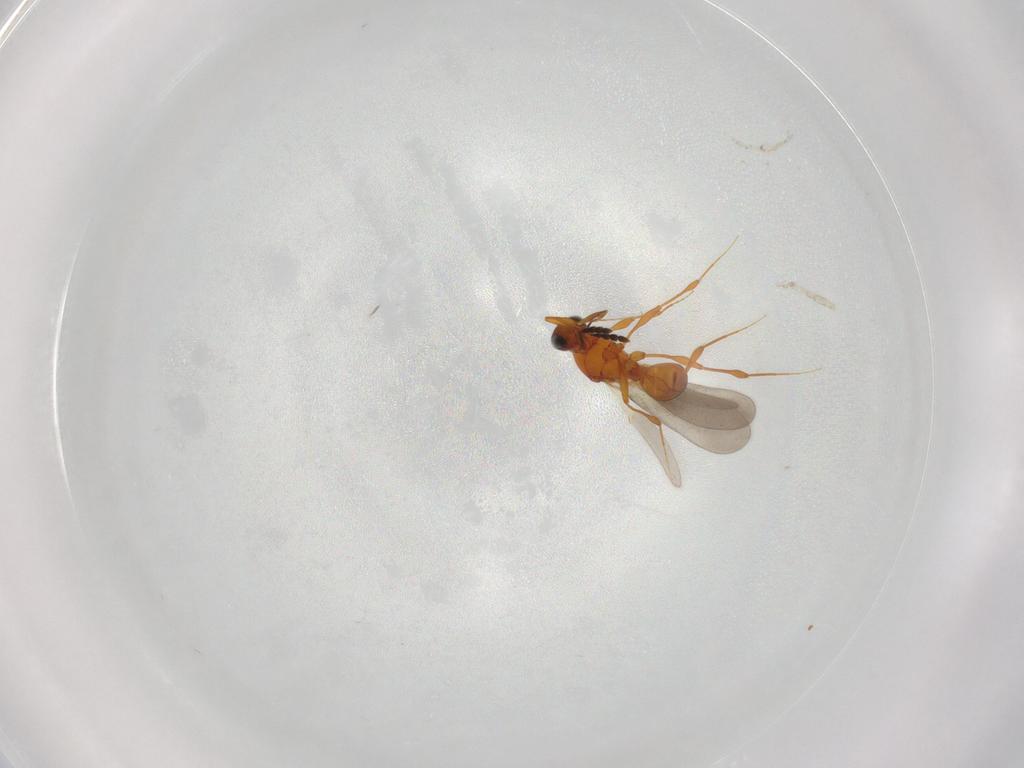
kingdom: Animalia
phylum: Arthropoda
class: Insecta
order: Hymenoptera
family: Platygastridae
